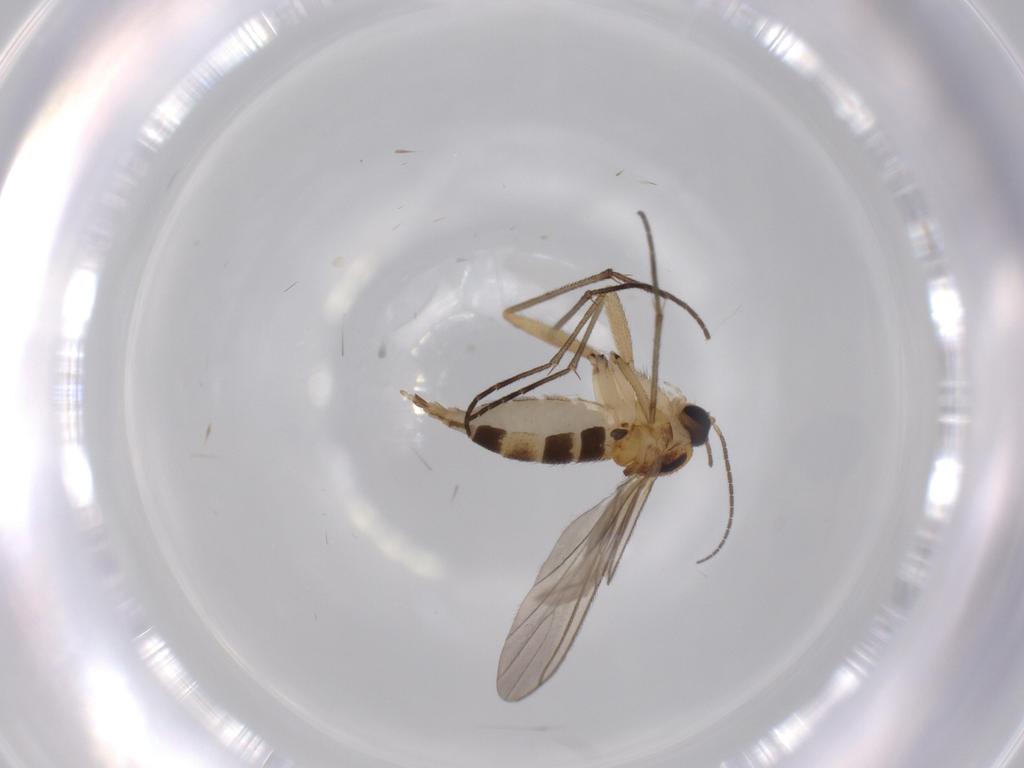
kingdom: Animalia
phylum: Arthropoda
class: Insecta
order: Diptera
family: Sciaridae
